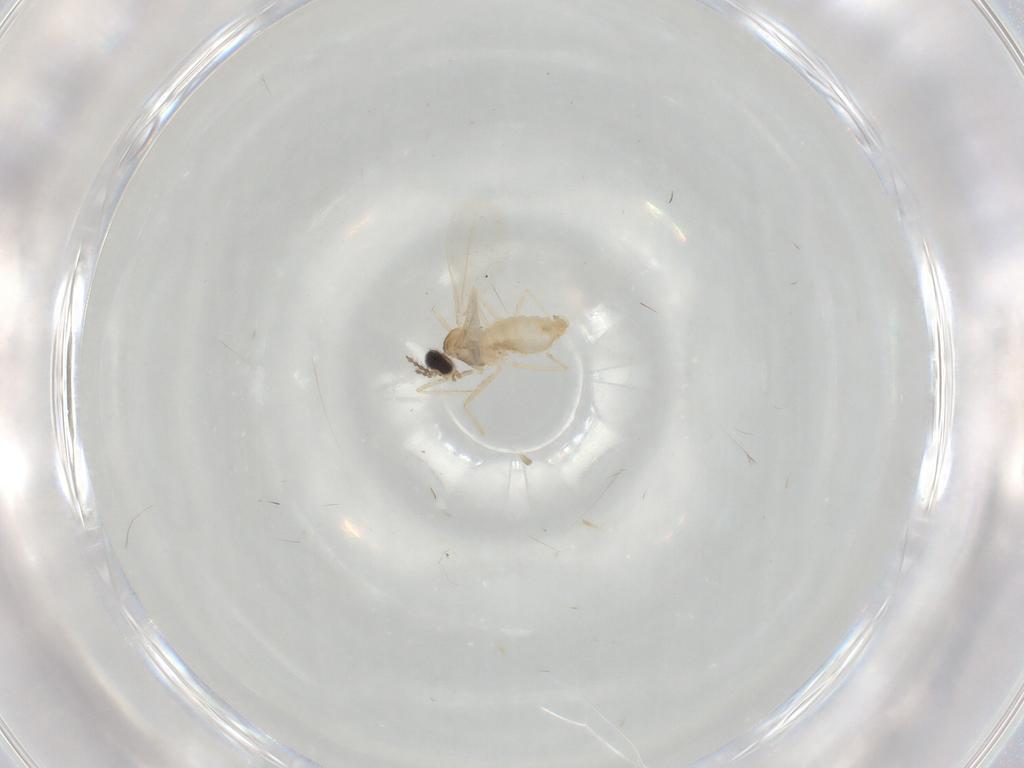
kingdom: Animalia
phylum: Arthropoda
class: Insecta
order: Diptera
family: Cecidomyiidae
